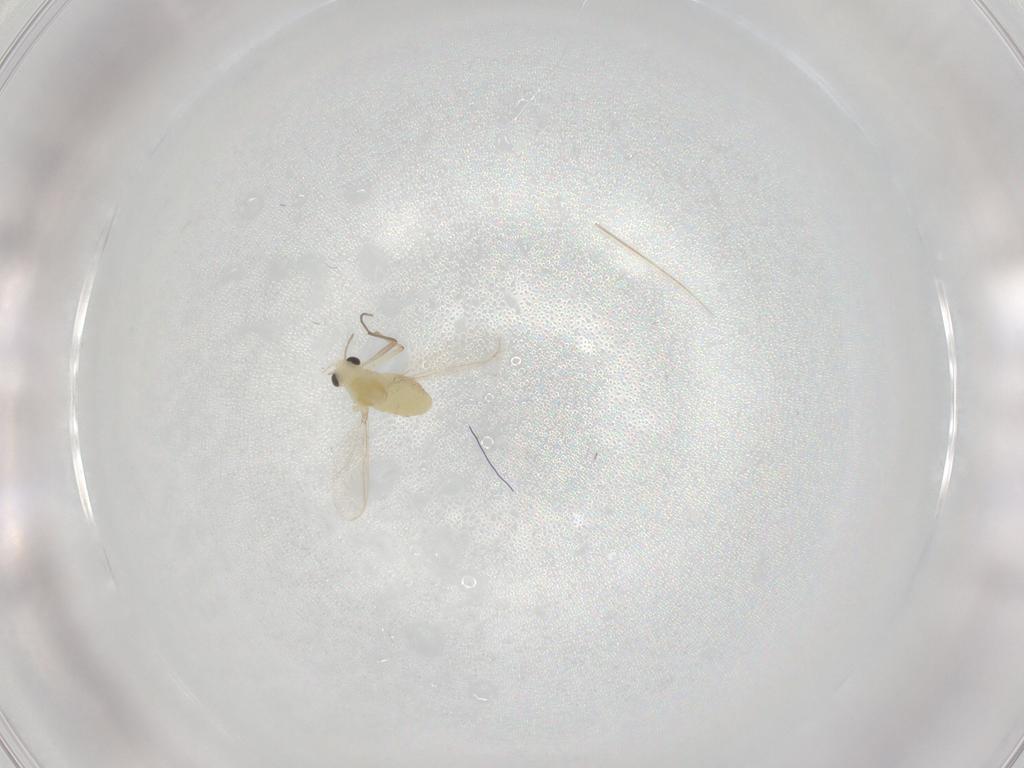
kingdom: Animalia
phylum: Arthropoda
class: Insecta
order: Diptera
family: Chironomidae
